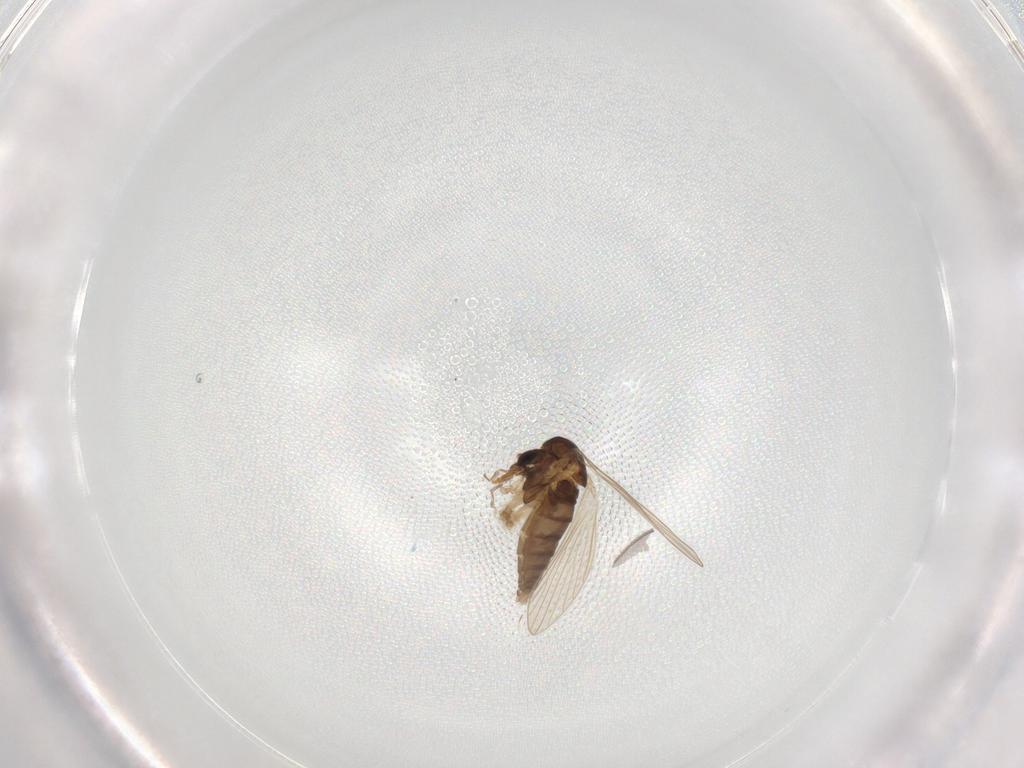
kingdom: Animalia
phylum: Arthropoda
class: Insecta
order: Diptera
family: Psychodidae
